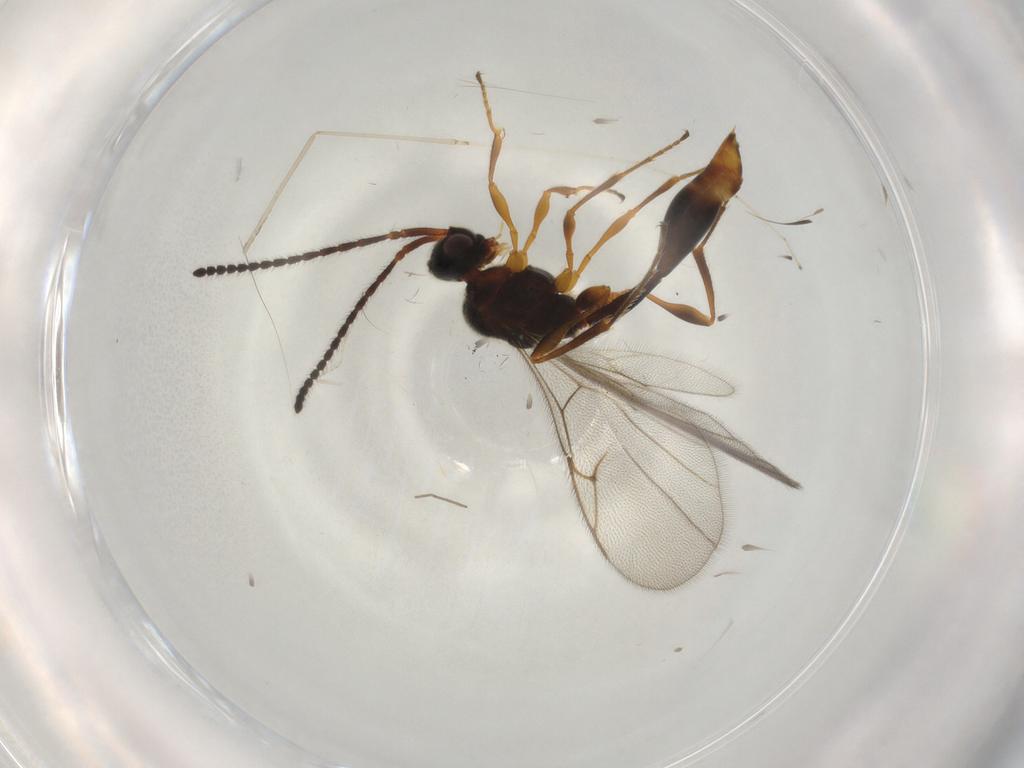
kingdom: Animalia
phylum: Arthropoda
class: Insecta
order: Hymenoptera
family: Diapriidae
